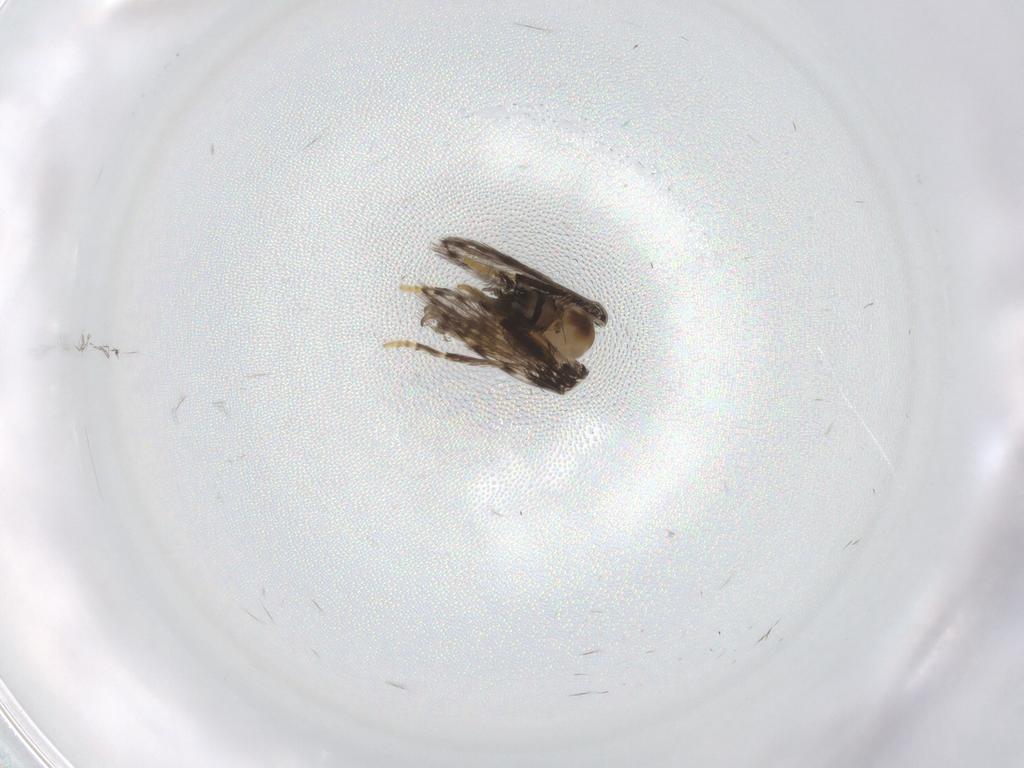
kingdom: Animalia
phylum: Arthropoda
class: Insecta
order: Diptera
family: Psychodidae
